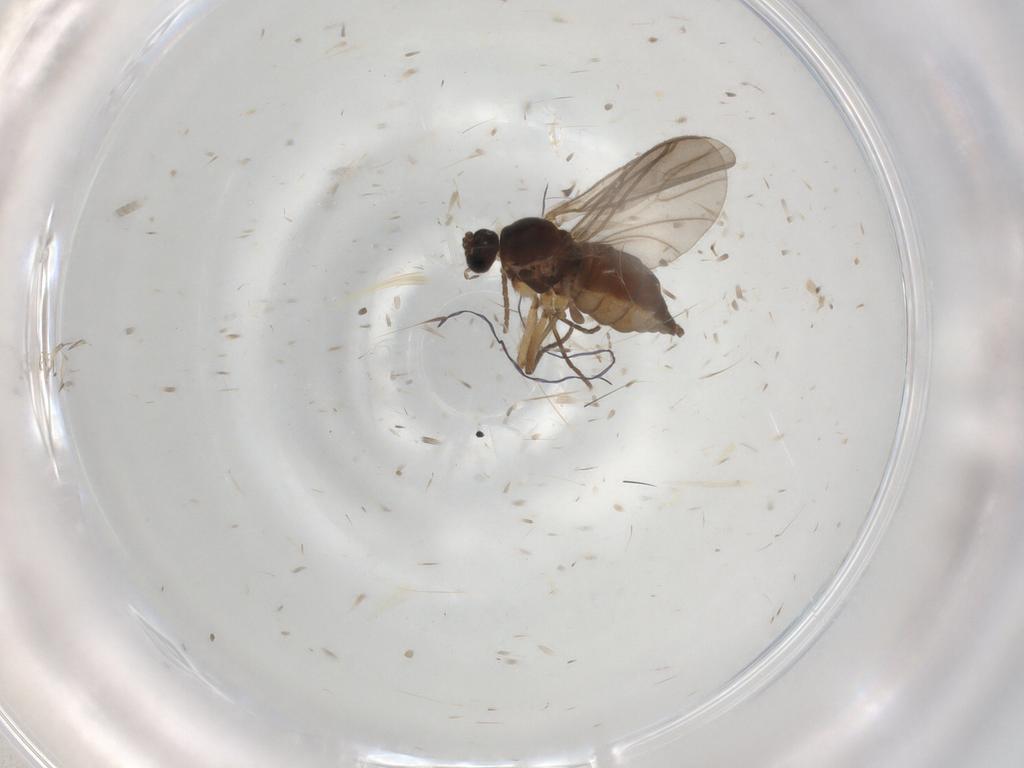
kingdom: Animalia
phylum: Arthropoda
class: Insecta
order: Diptera
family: Sciaridae
